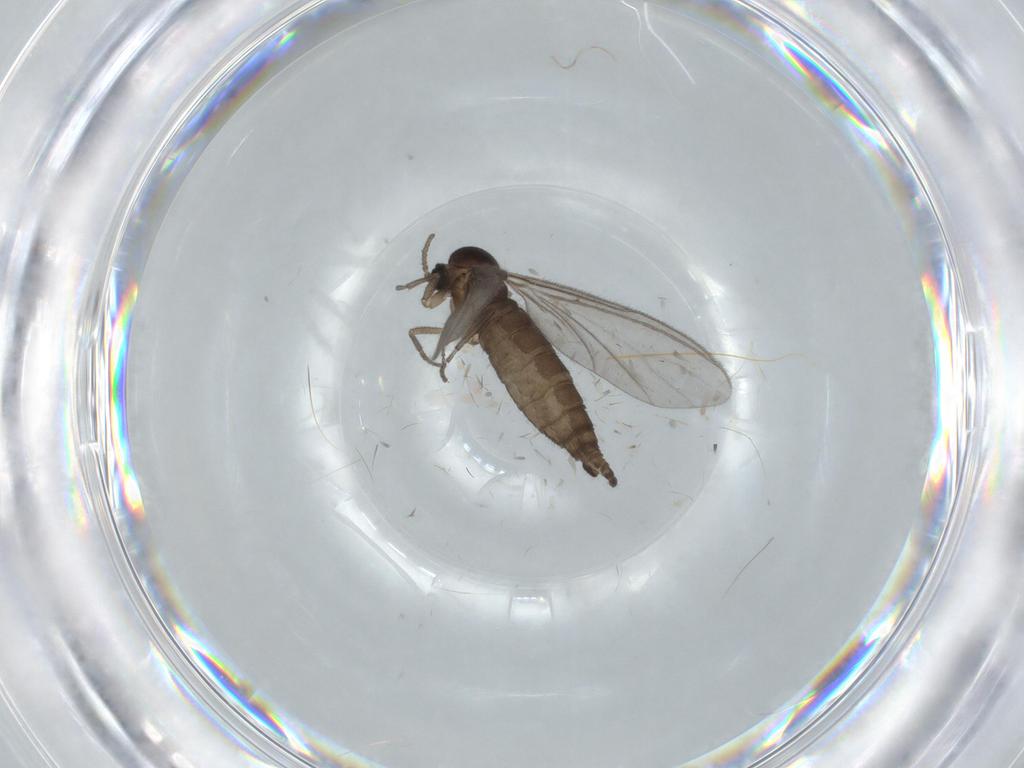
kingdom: Animalia
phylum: Arthropoda
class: Insecta
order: Diptera
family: Sciaridae
